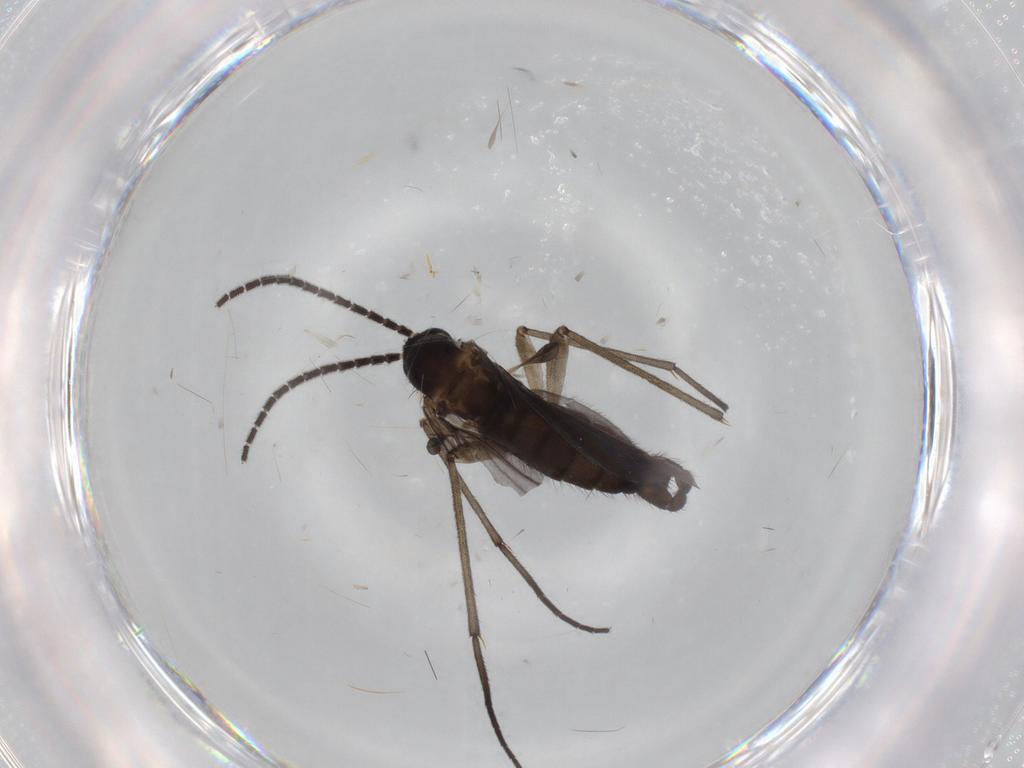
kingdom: Animalia
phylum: Arthropoda
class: Insecta
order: Diptera
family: Sciaridae
